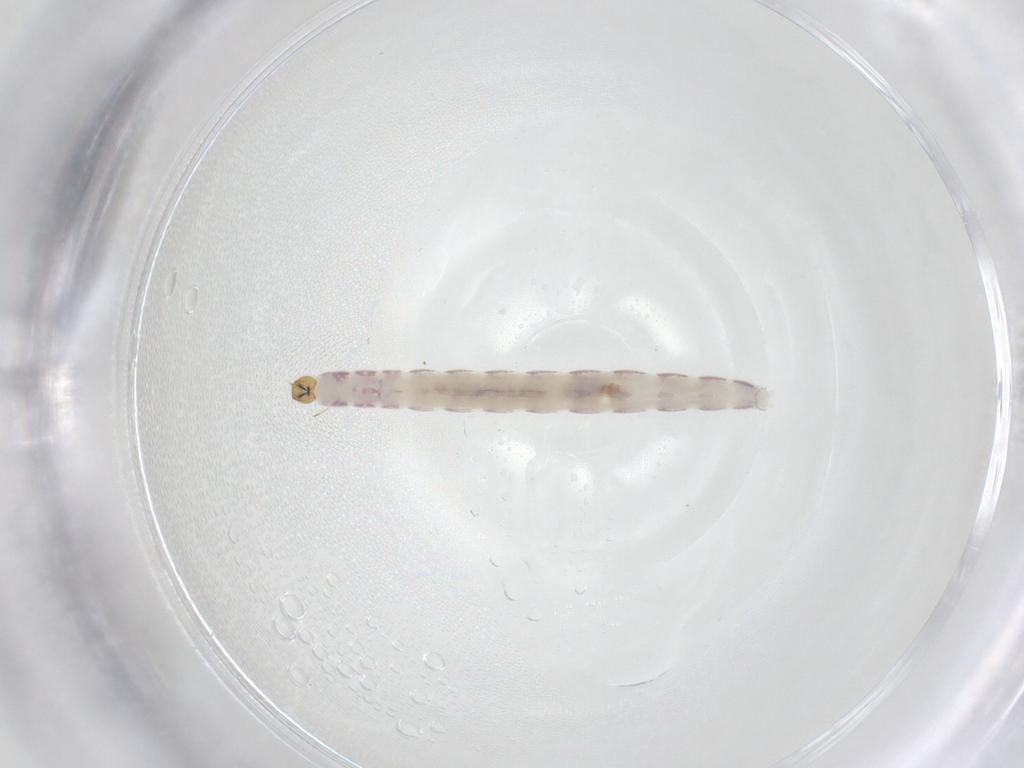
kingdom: Animalia
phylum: Arthropoda
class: Insecta
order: Diptera
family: Chironomidae
